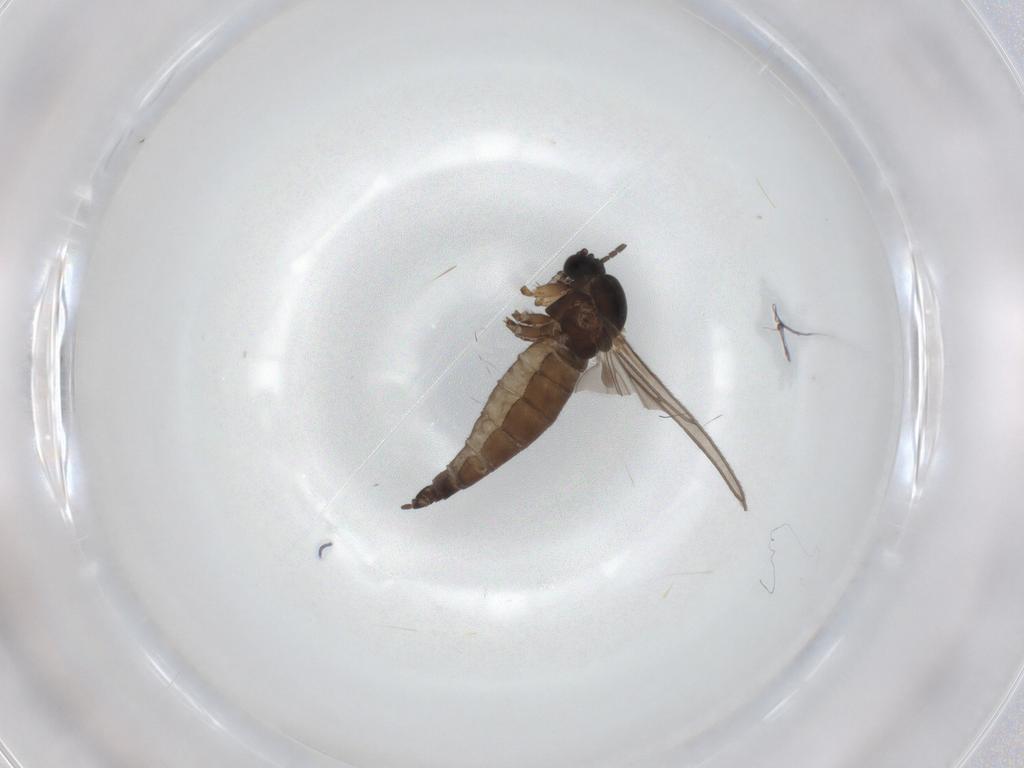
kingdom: Animalia
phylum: Arthropoda
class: Insecta
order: Diptera
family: Sciaridae
